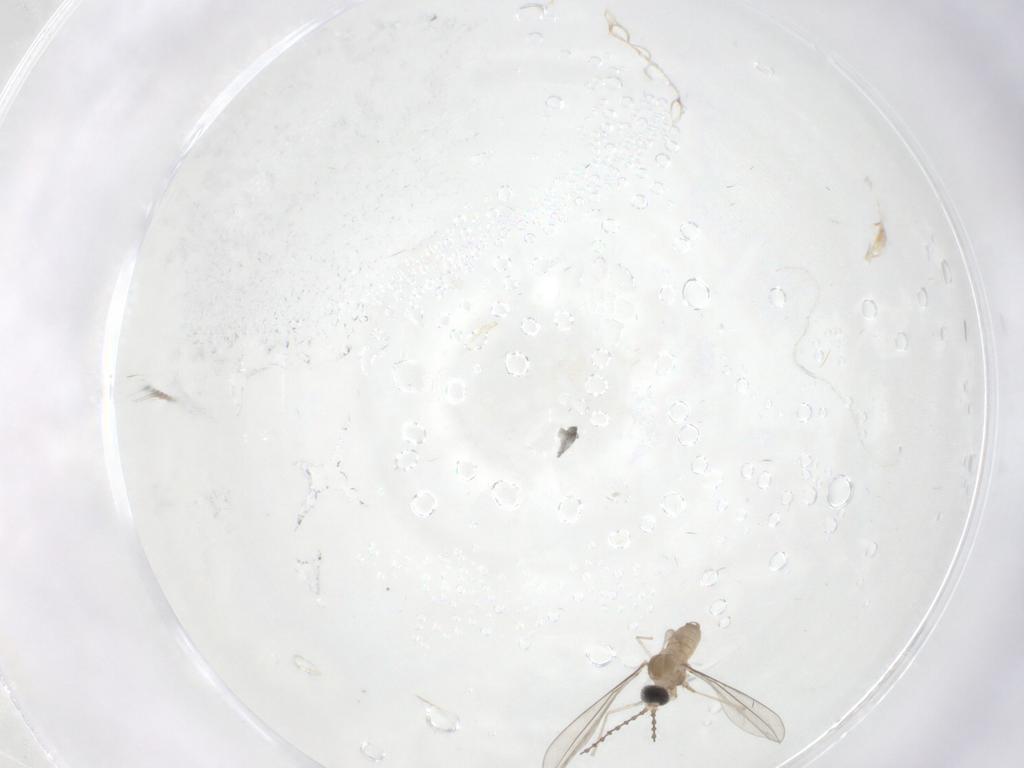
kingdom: Animalia
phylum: Arthropoda
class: Insecta
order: Diptera
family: Cecidomyiidae
